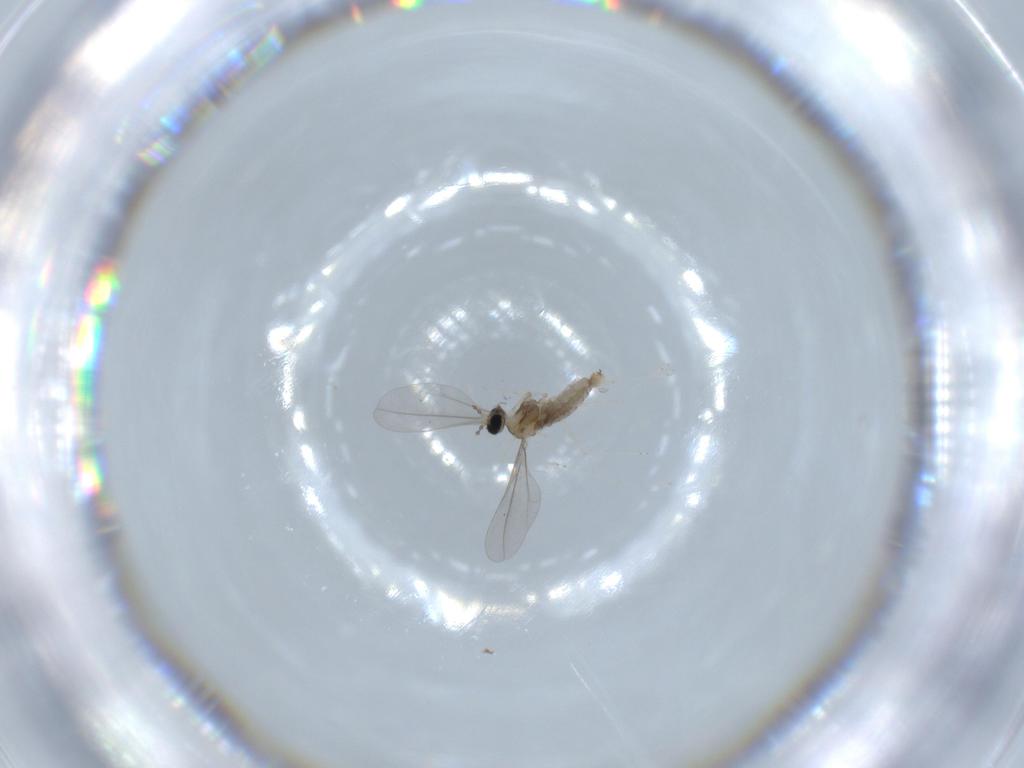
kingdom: Animalia
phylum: Arthropoda
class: Insecta
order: Diptera
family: Cecidomyiidae
